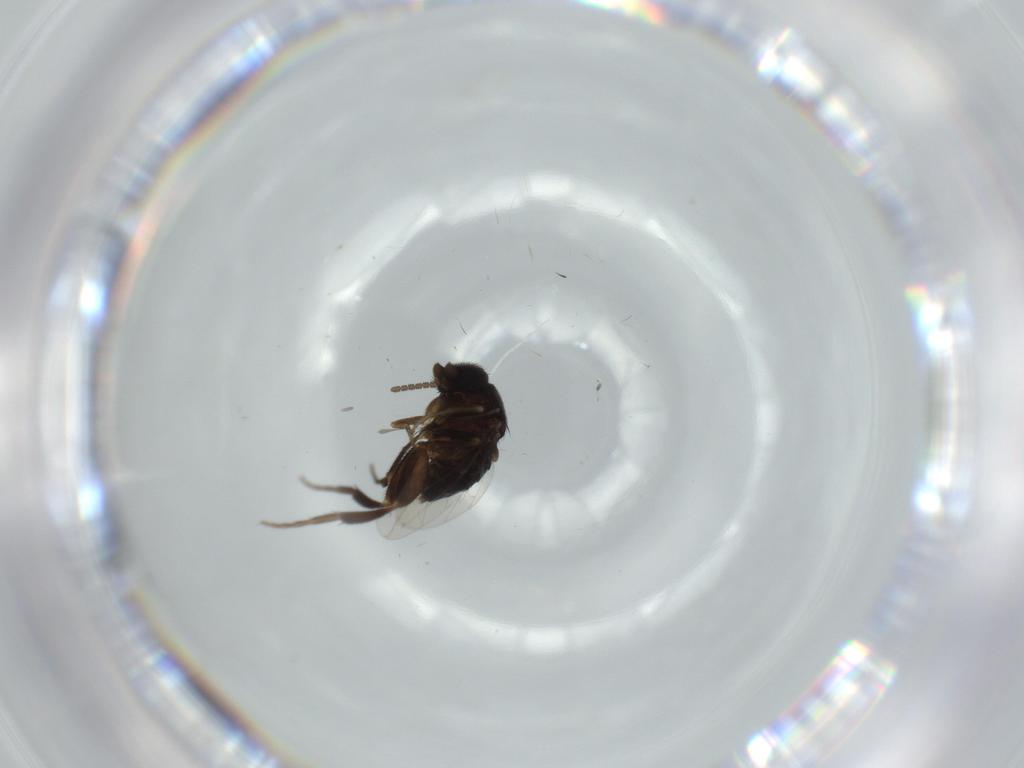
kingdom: Animalia
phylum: Arthropoda
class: Insecta
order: Diptera
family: Phoridae
